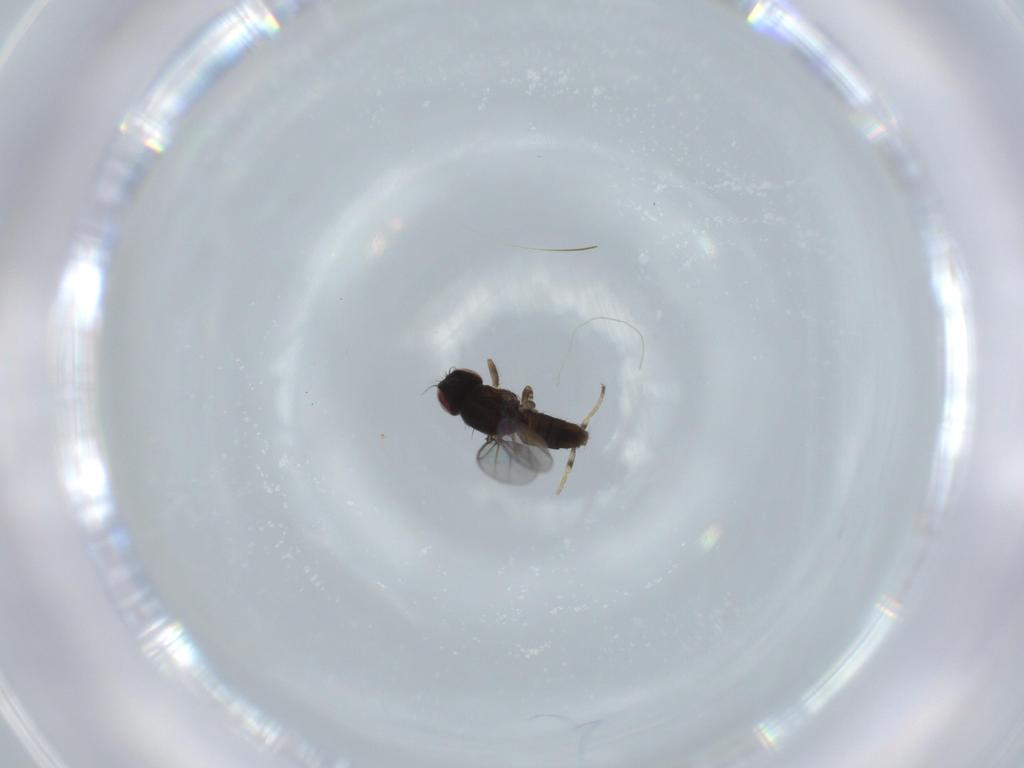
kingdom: Animalia
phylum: Arthropoda
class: Insecta
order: Diptera
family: Chloropidae
